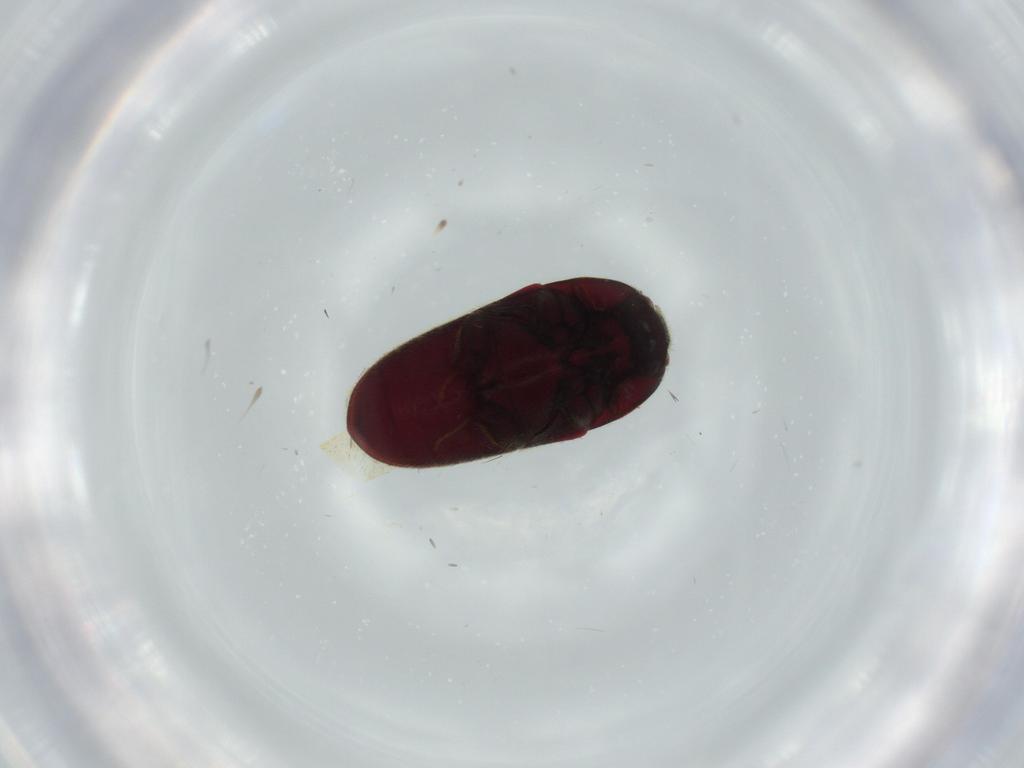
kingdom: Animalia
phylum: Arthropoda
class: Insecta
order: Coleoptera
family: Throscidae
